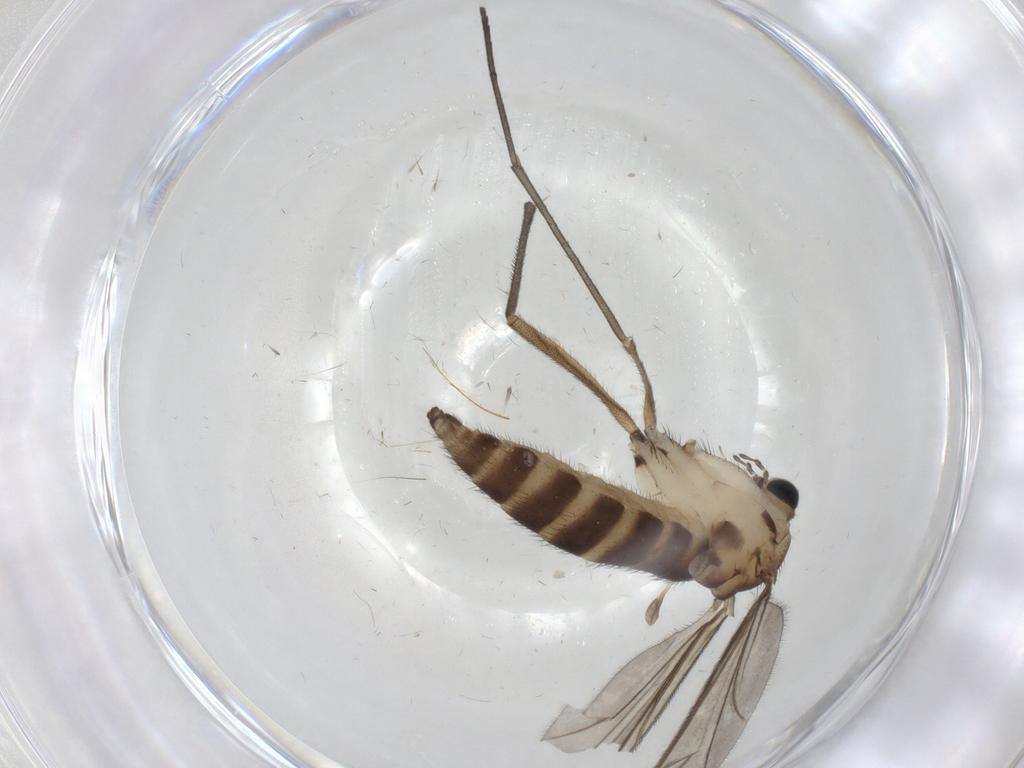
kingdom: Animalia
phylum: Arthropoda
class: Insecta
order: Diptera
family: Sciaridae
